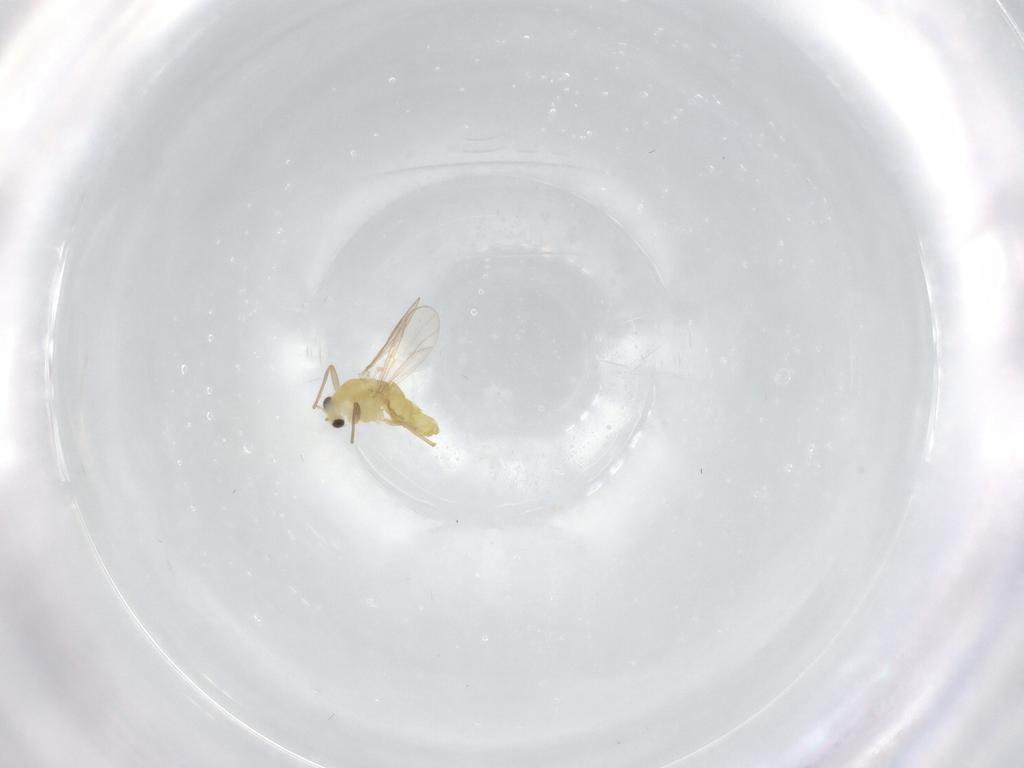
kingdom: Animalia
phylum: Arthropoda
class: Insecta
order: Diptera
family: Chironomidae
